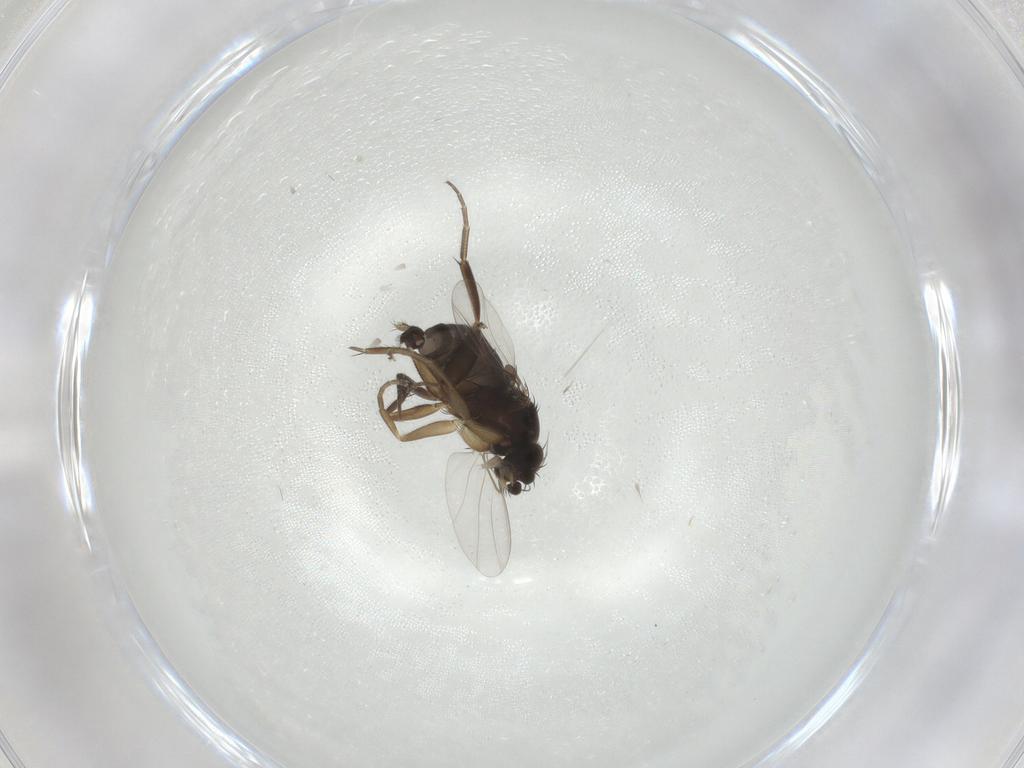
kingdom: Animalia
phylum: Arthropoda
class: Insecta
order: Diptera
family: Phoridae
